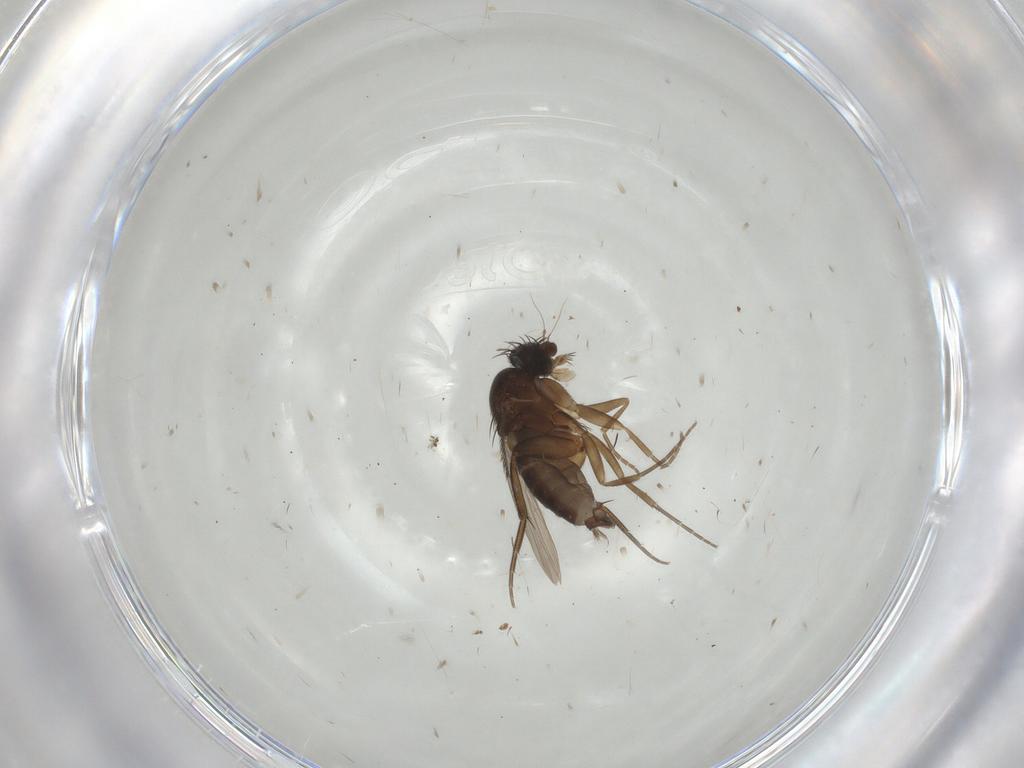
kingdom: Animalia
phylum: Arthropoda
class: Insecta
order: Diptera
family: Phoridae
